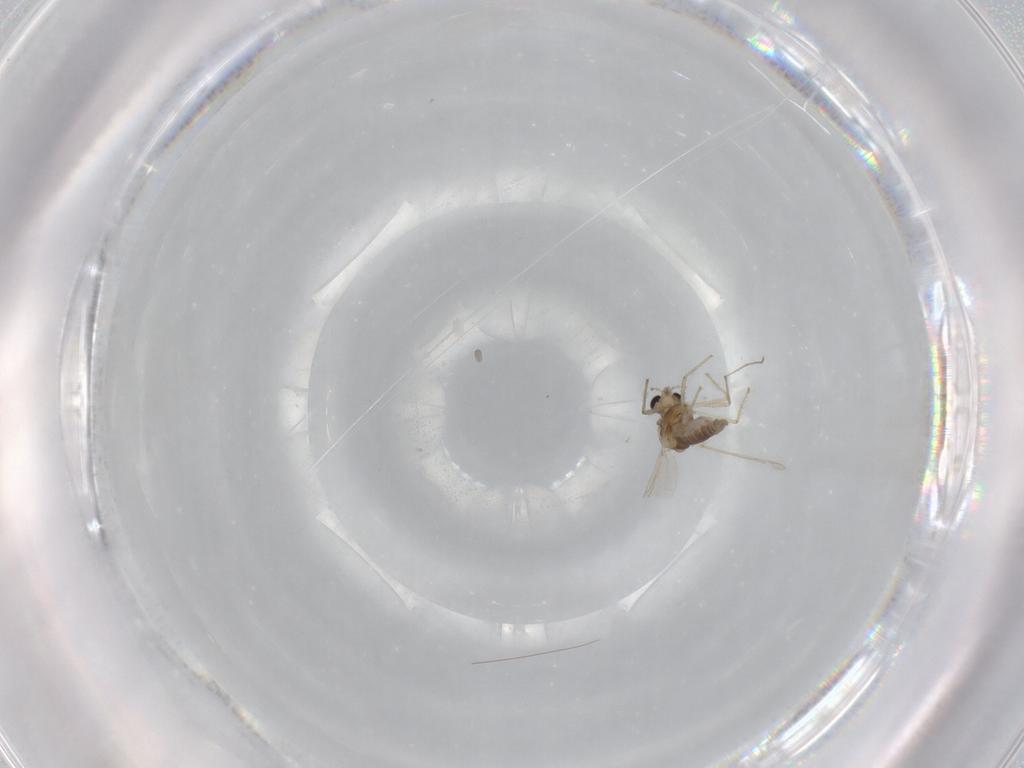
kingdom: Animalia
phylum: Arthropoda
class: Insecta
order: Diptera
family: Chironomidae
